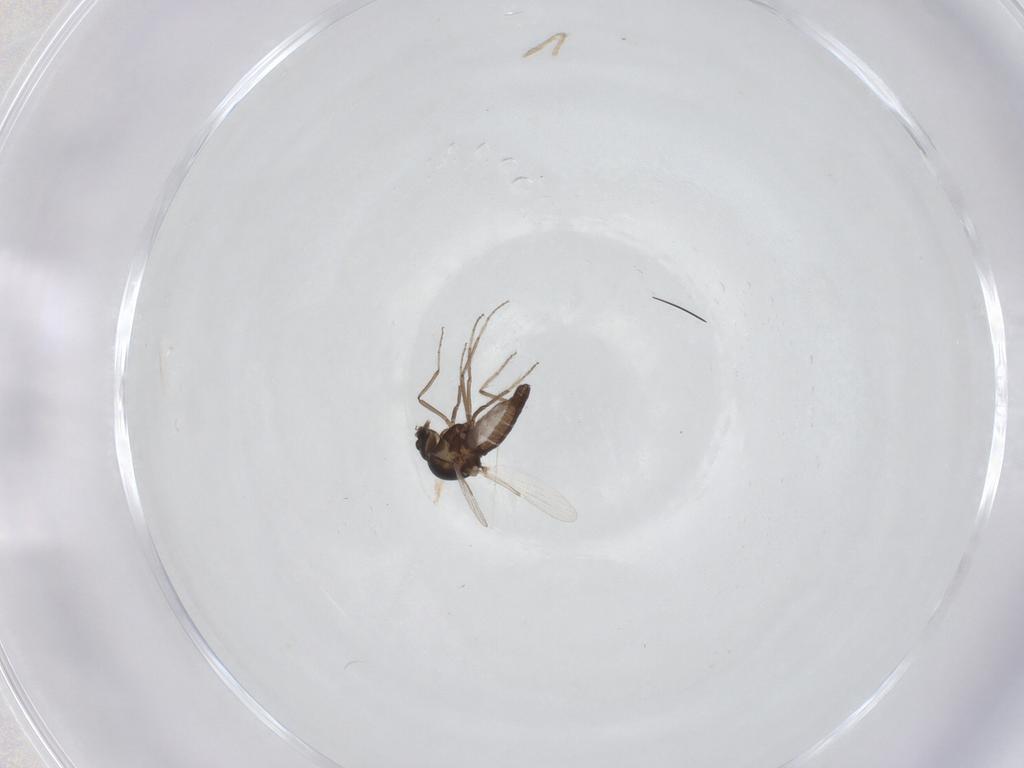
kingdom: Animalia
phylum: Arthropoda
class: Insecta
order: Diptera
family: Ceratopogonidae
